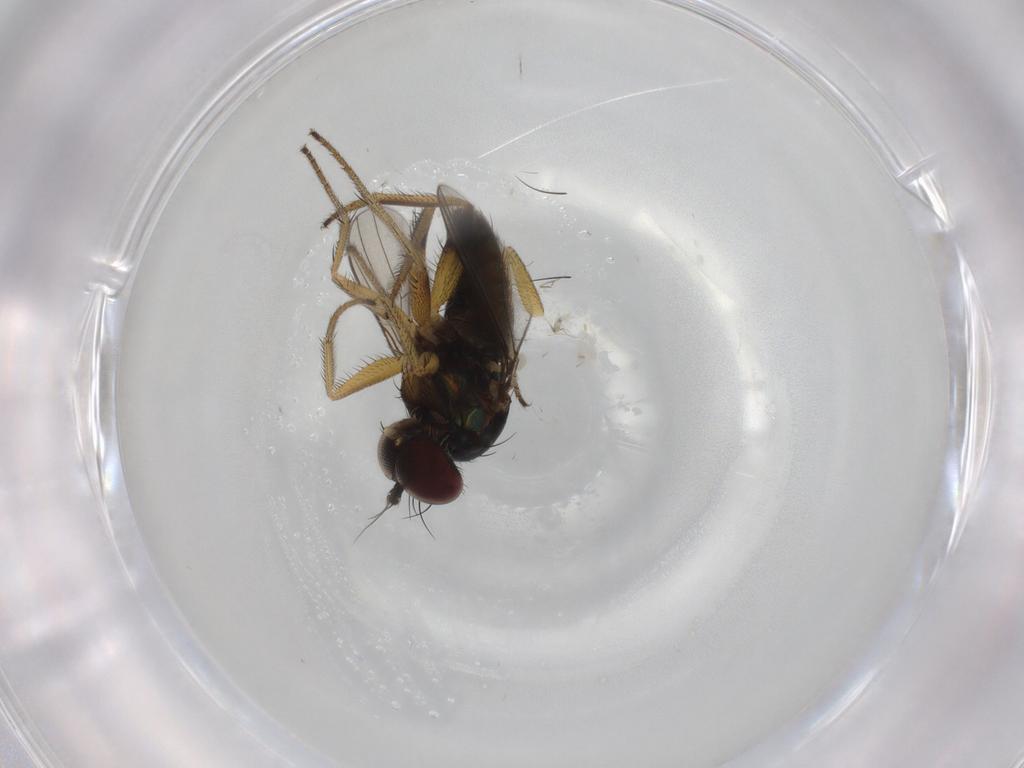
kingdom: Animalia
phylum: Arthropoda
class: Insecta
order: Diptera
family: Dolichopodidae
